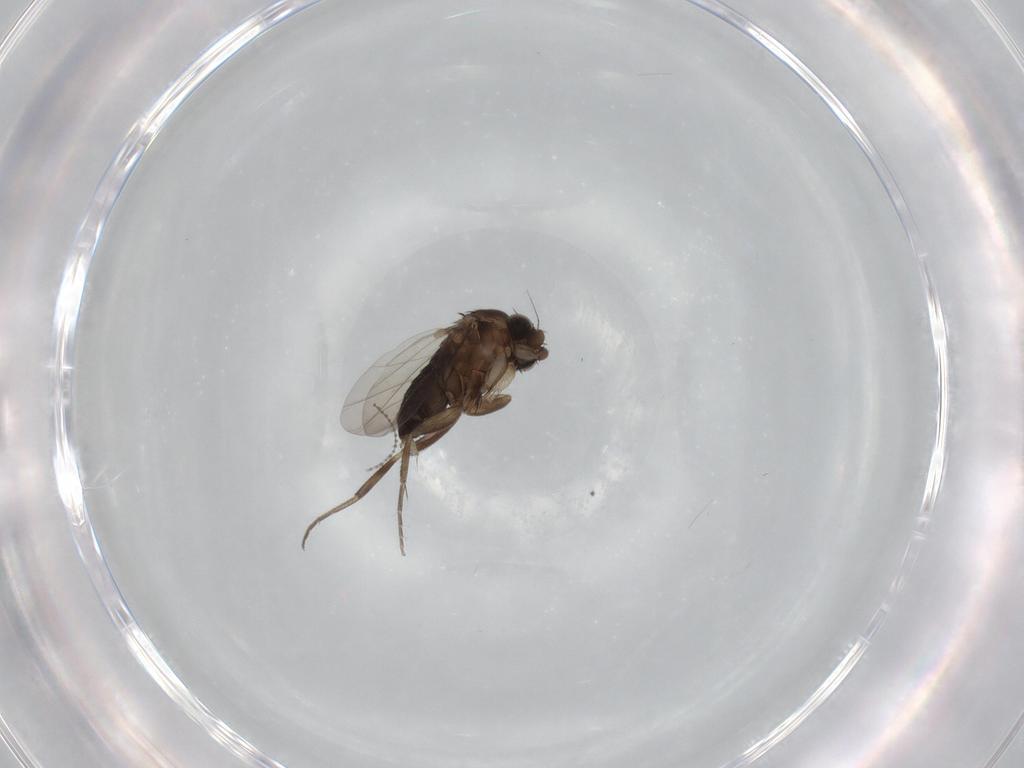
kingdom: Animalia
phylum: Arthropoda
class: Insecta
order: Diptera
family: Phoridae
